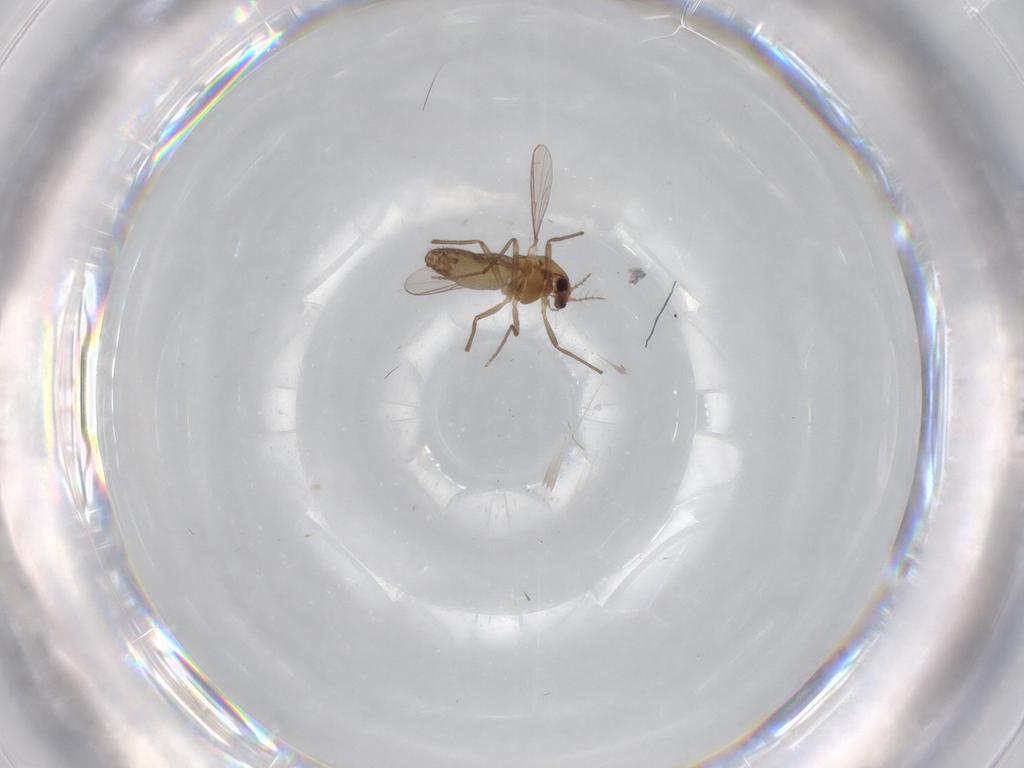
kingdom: Animalia
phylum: Arthropoda
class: Insecta
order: Diptera
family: Chironomidae
